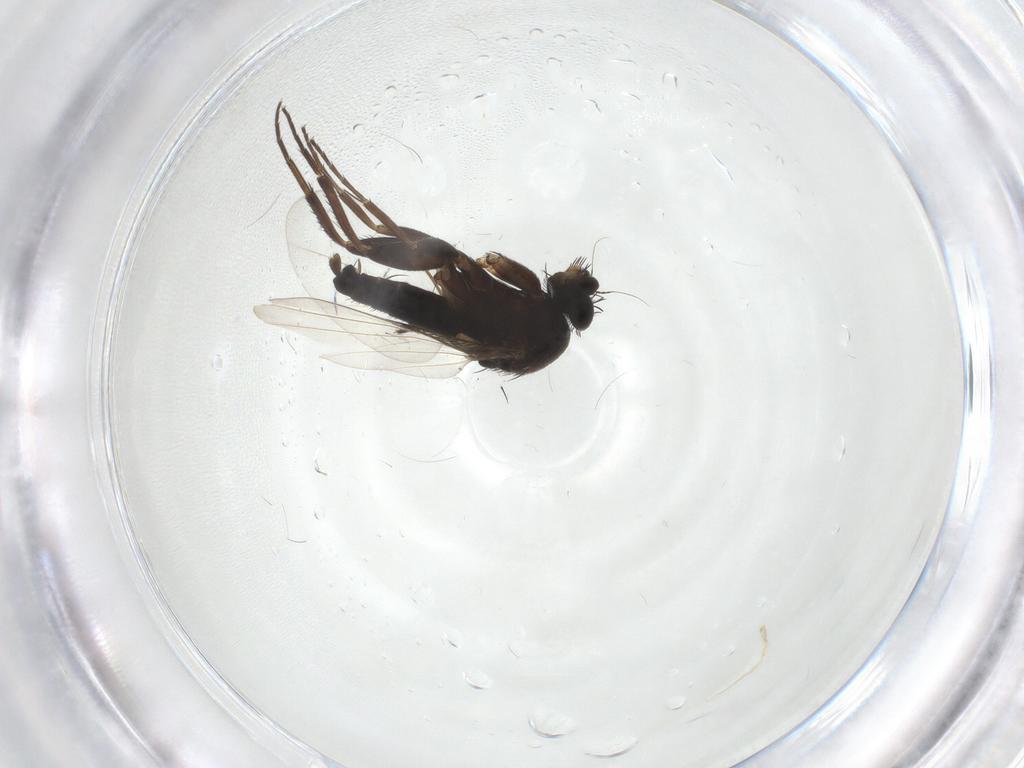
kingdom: Animalia
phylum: Arthropoda
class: Insecta
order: Diptera
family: Phoridae
